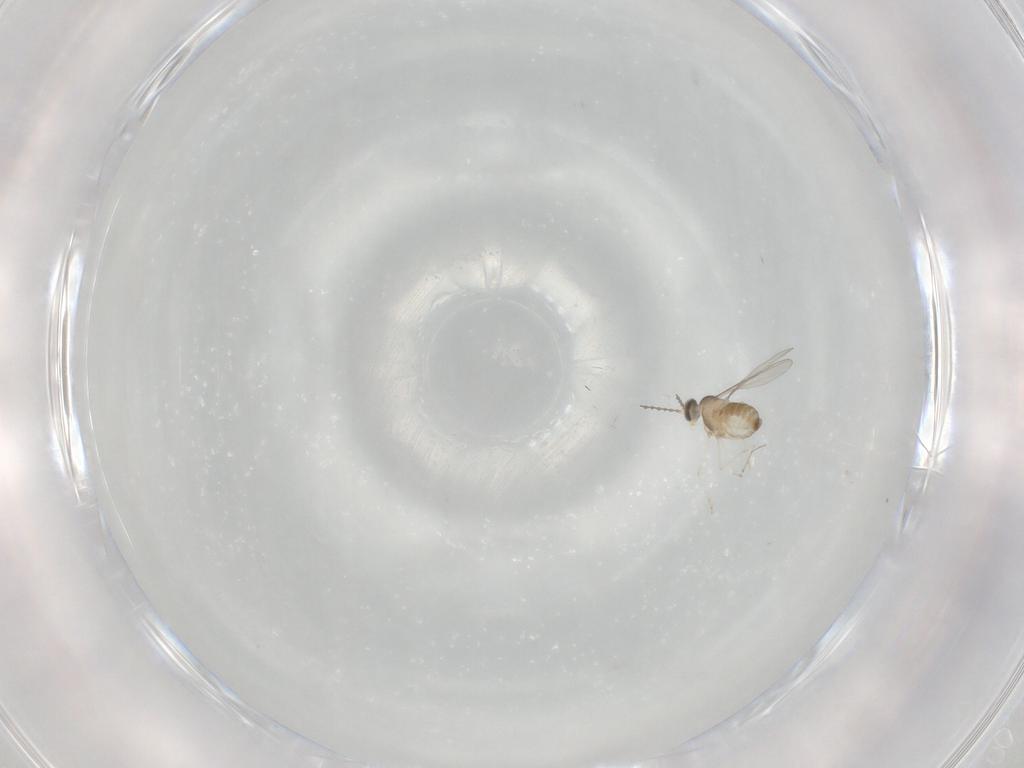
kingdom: Animalia
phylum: Arthropoda
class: Insecta
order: Diptera
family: Cecidomyiidae
